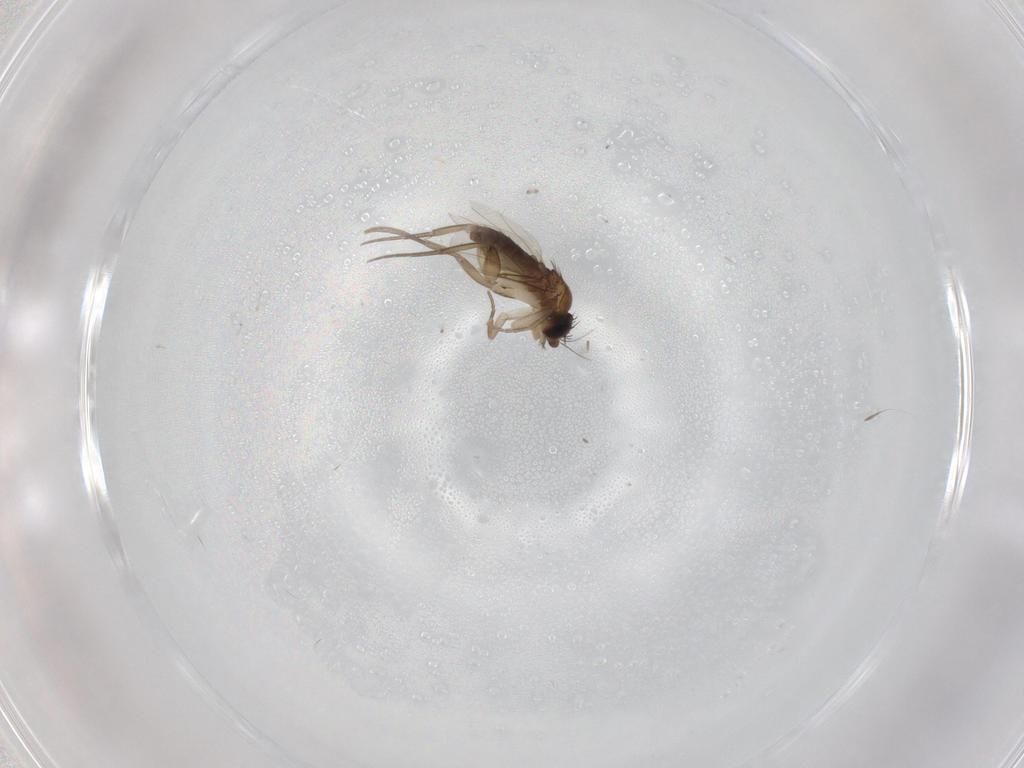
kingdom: Animalia
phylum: Arthropoda
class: Insecta
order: Diptera
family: Phoridae
